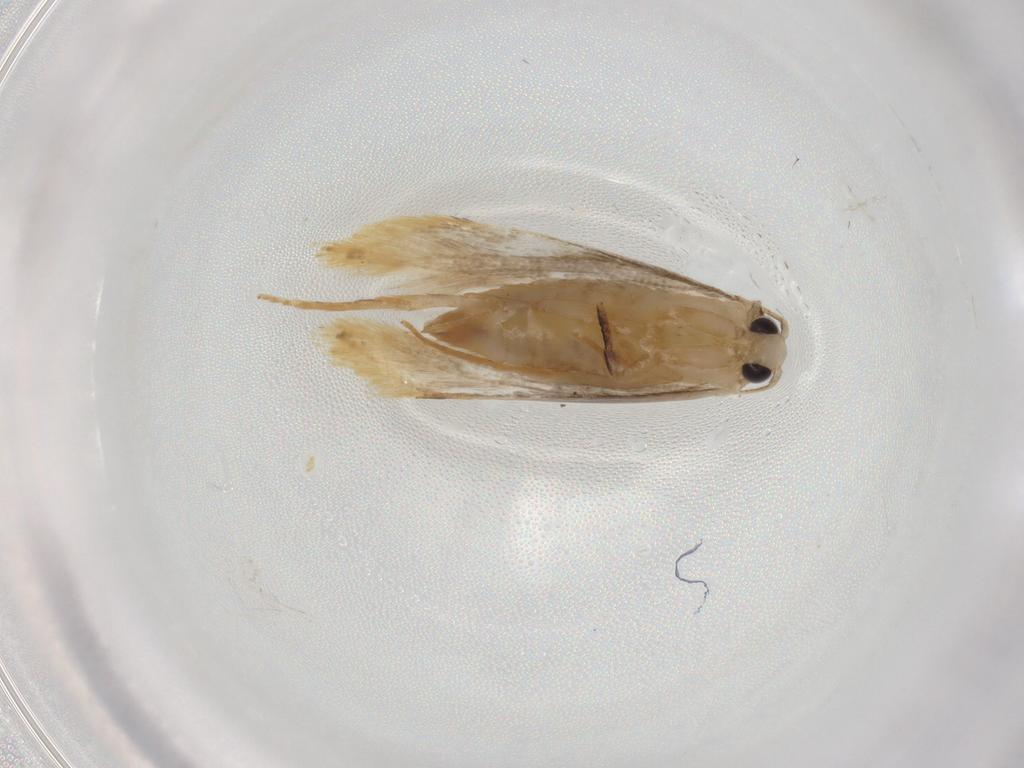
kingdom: Animalia
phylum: Arthropoda
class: Insecta
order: Lepidoptera
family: Tineidae
